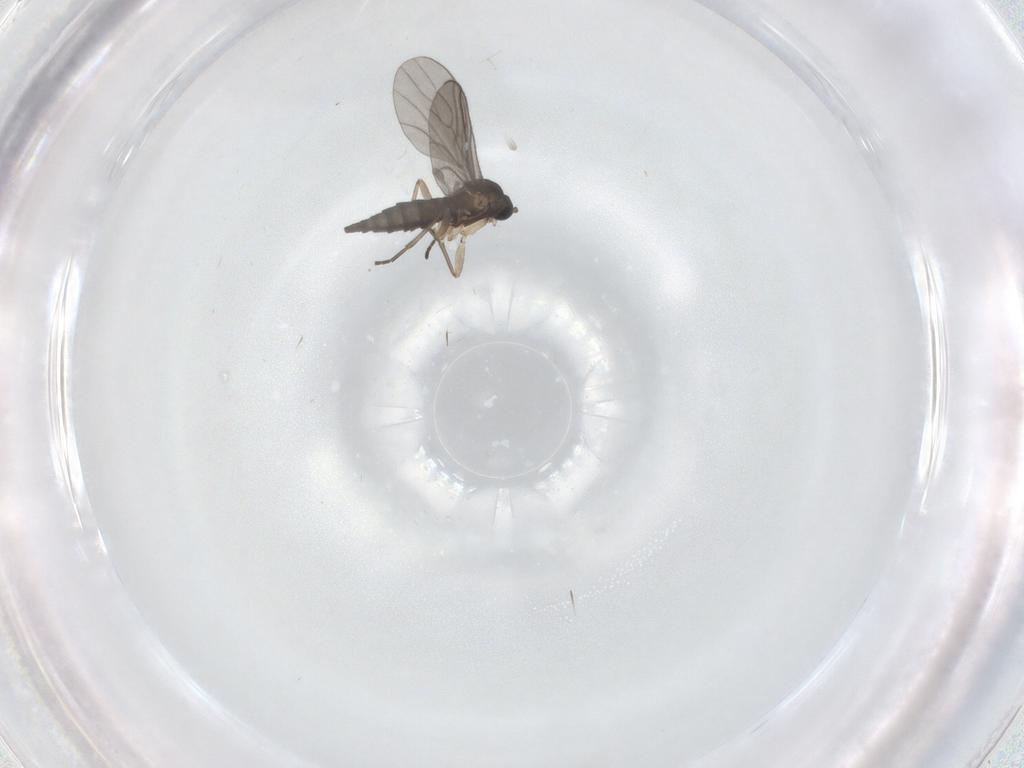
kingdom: Animalia
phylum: Arthropoda
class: Insecta
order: Diptera
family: Sciaridae
